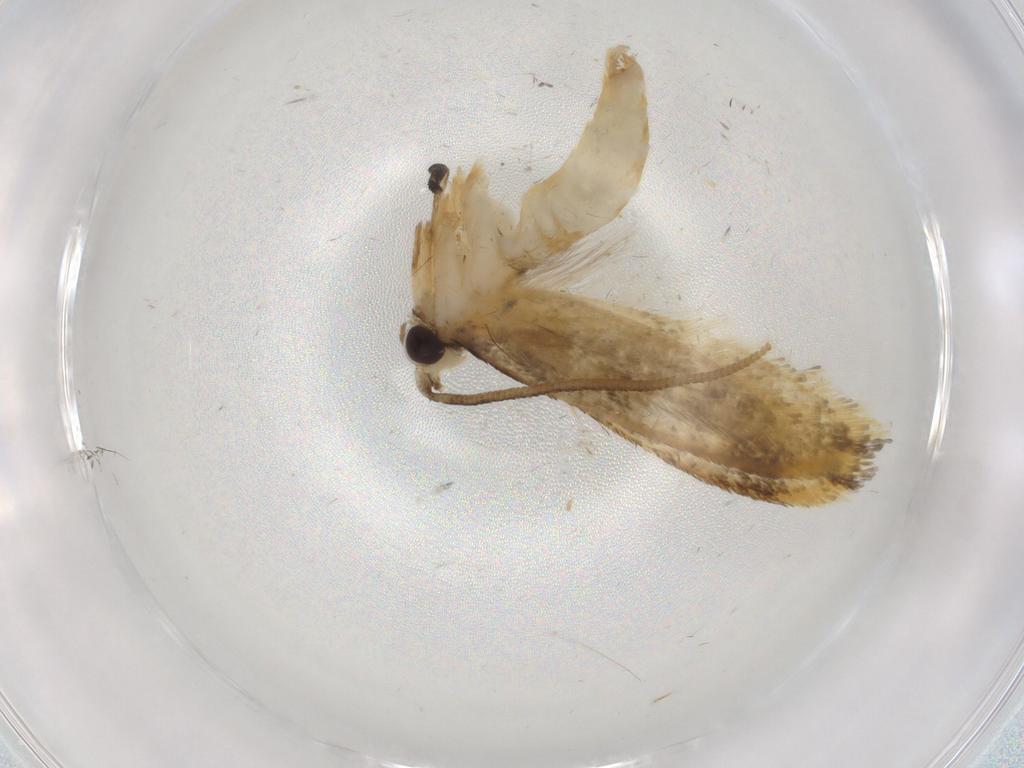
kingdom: Animalia
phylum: Arthropoda
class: Insecta
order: Lepidoptera
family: Tineidae
